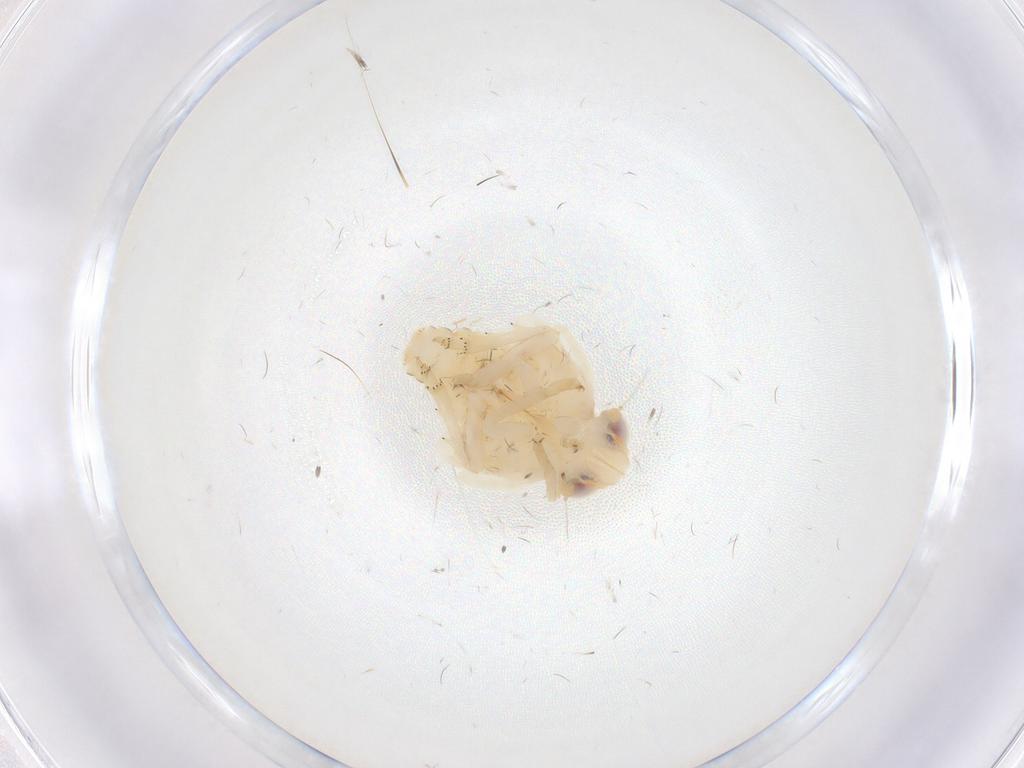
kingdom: Animalia
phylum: Arthropoda
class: Insecta
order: Hemiptera
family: Nogodinidae
